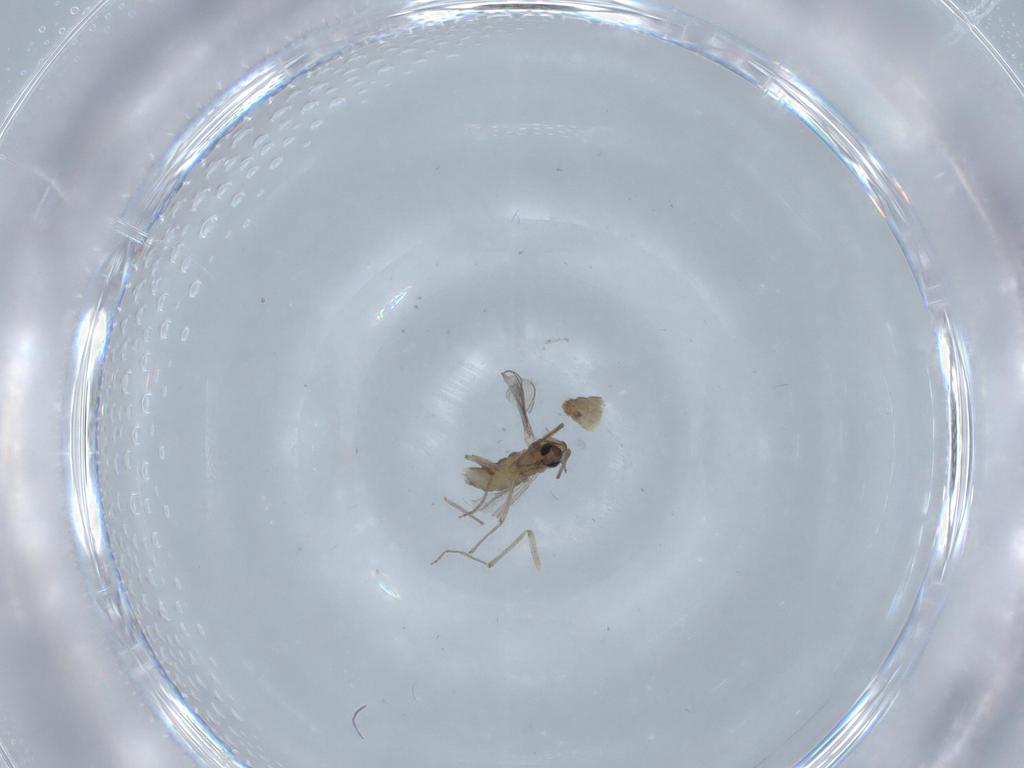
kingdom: Animalia
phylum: Arthropoda
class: Insecta
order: Diptera
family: Chironomidae
